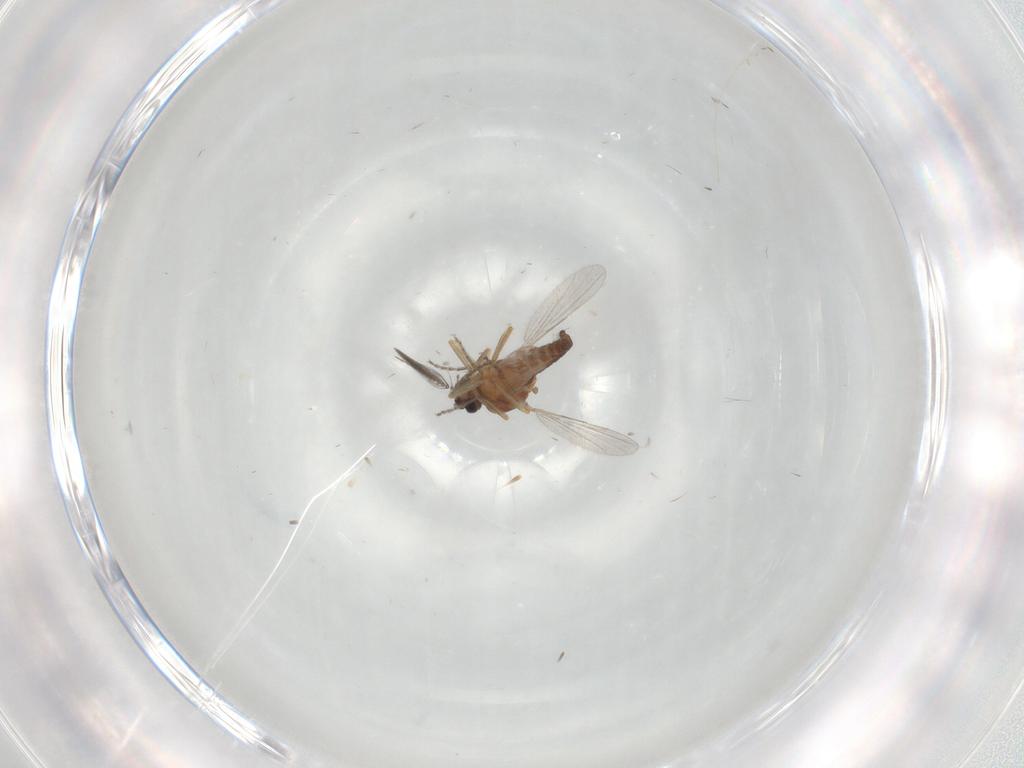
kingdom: Animalia
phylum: Arthropoda
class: Insecta
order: Diptera
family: Ceratopogonidae
